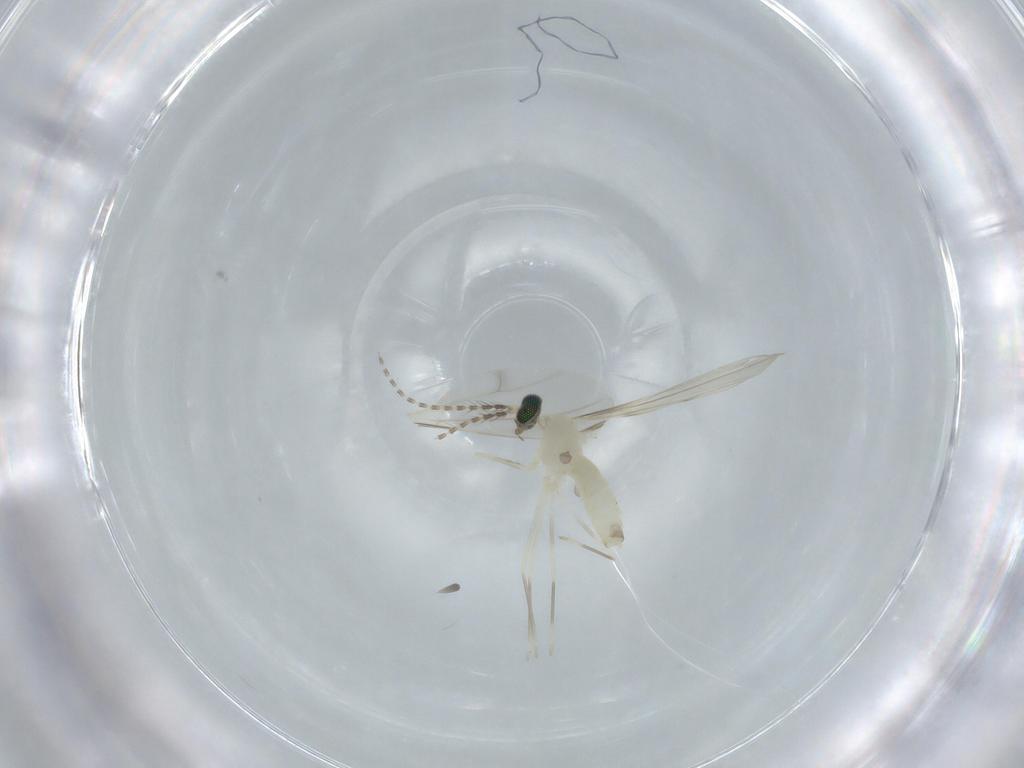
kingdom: Animalia
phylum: Arthropoda
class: Insecta
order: Diptera
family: Cecidomyiidae
